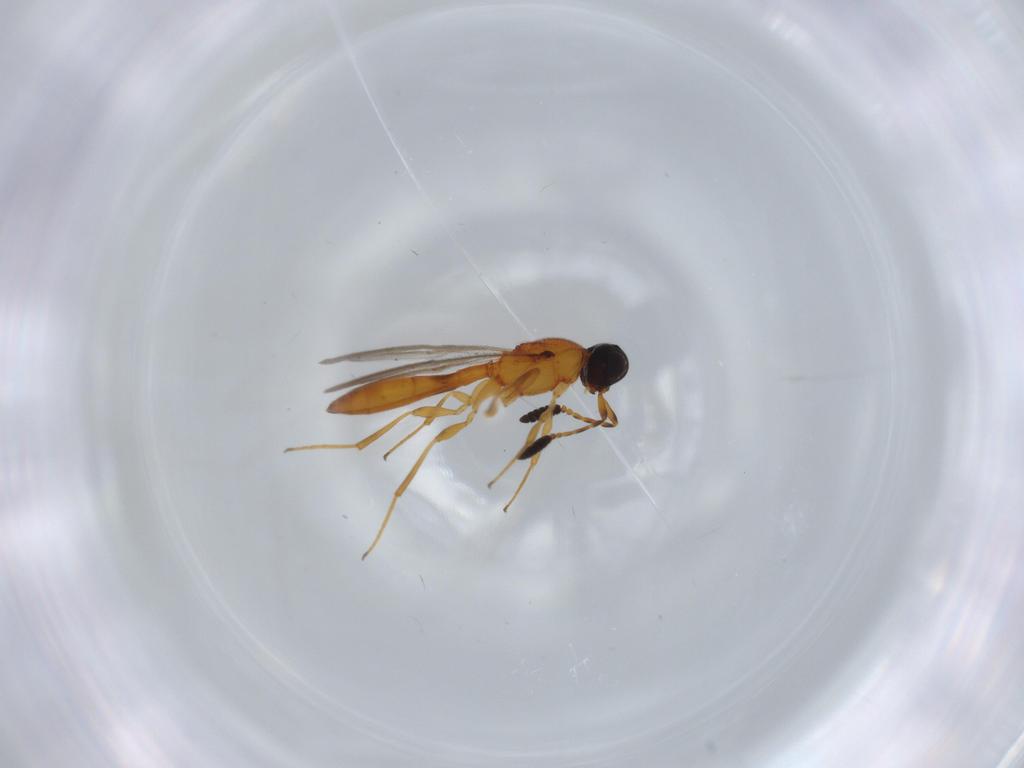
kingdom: Animalia
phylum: Arthropoda
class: Insecta
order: Hymenoptera
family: Scelionidae
